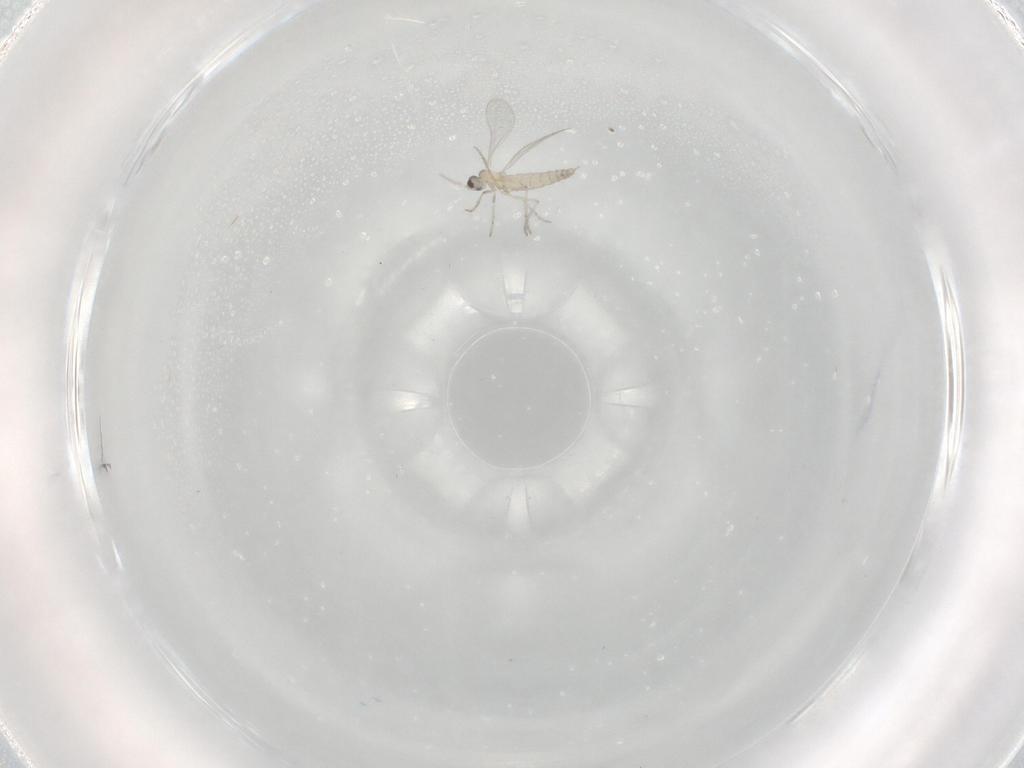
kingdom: Animalia
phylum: Arthropoda
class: Insecta
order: Diptera
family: Cecidomyiidae
